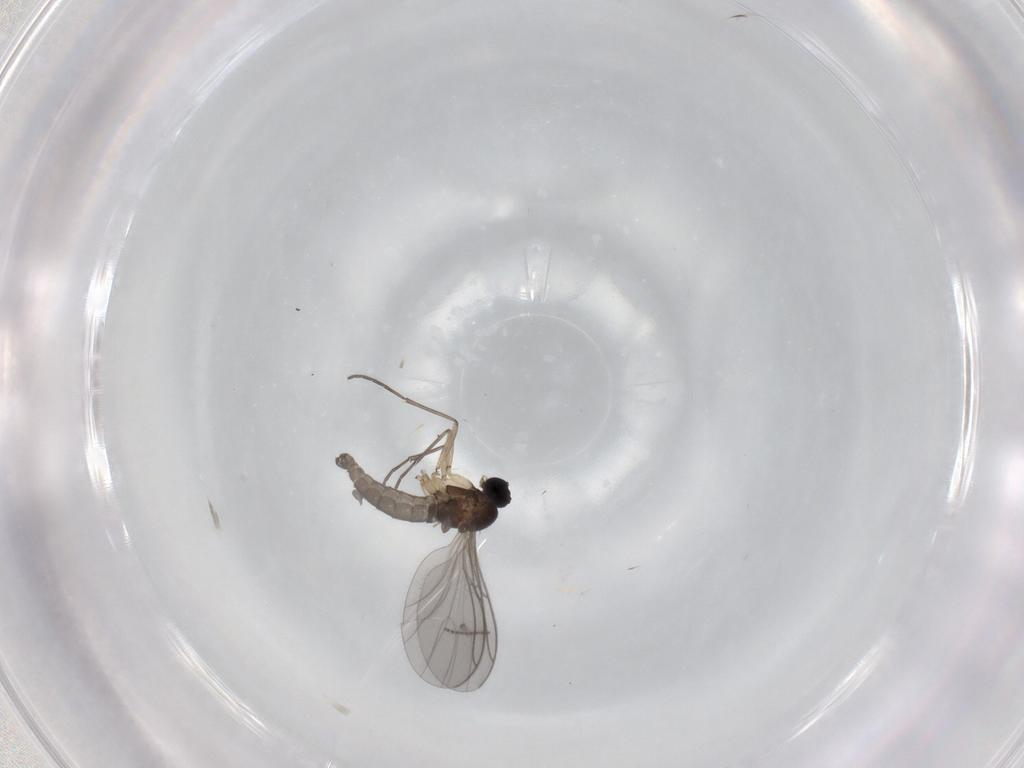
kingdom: Animalia
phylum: Arthropoda
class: Insecta
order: Diptera
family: Sciaridae
